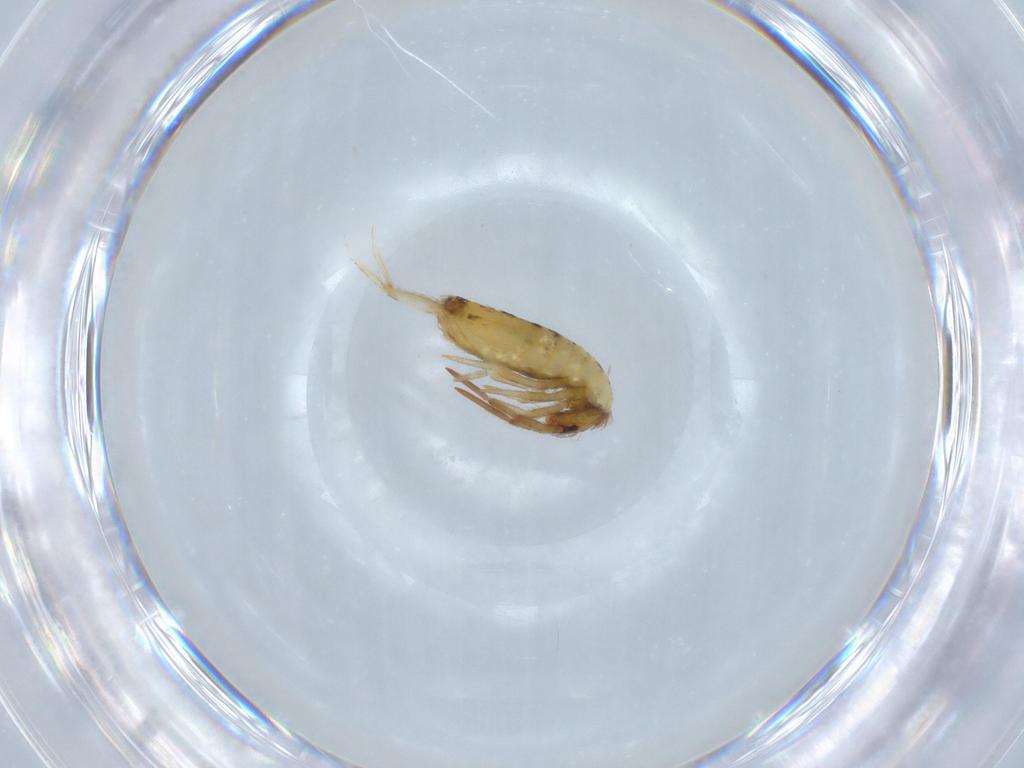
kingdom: Animalia
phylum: Arthropoda
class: Collembola
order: Entomobryomorpha
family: Entomobryidae
